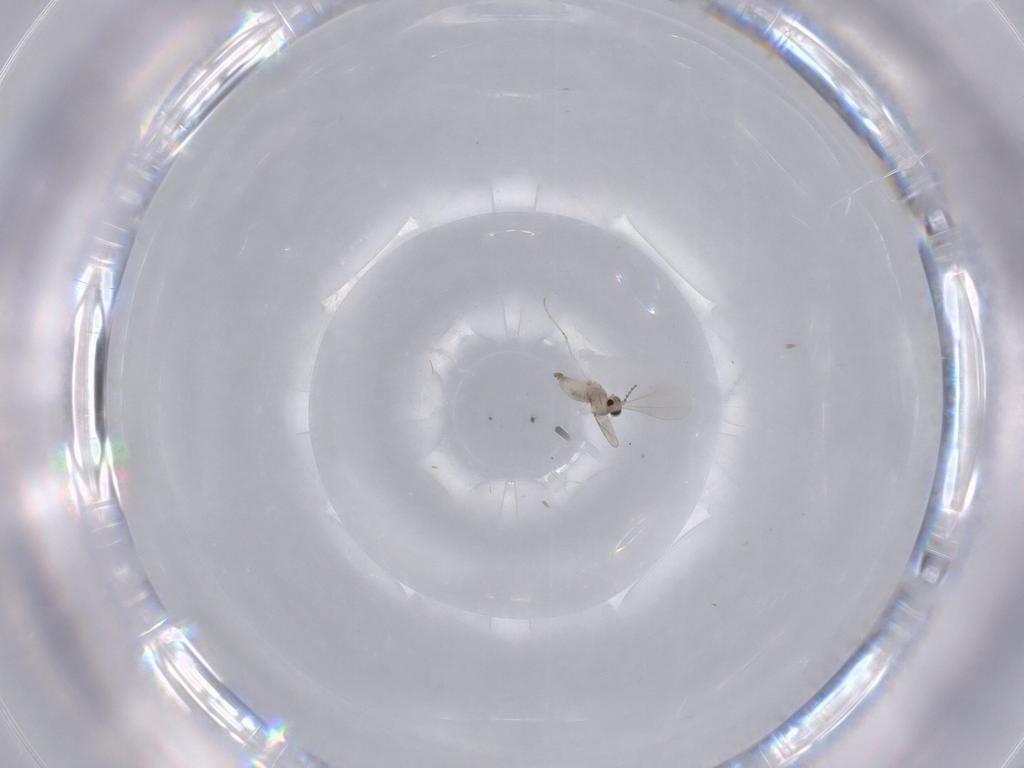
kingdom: Animalia
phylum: Arthropoda
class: Insecta
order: Diptera
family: Cecidomyiidae
